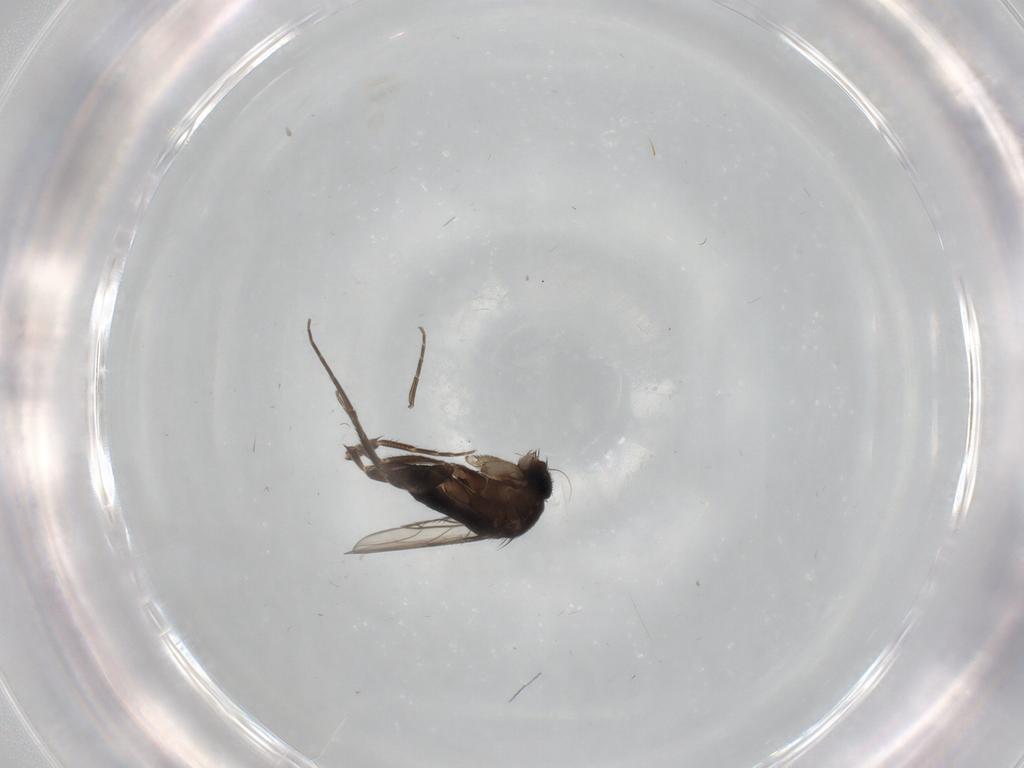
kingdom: Animalia
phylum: Arthropoda
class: Insecta
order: Diptera
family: Phoridae
